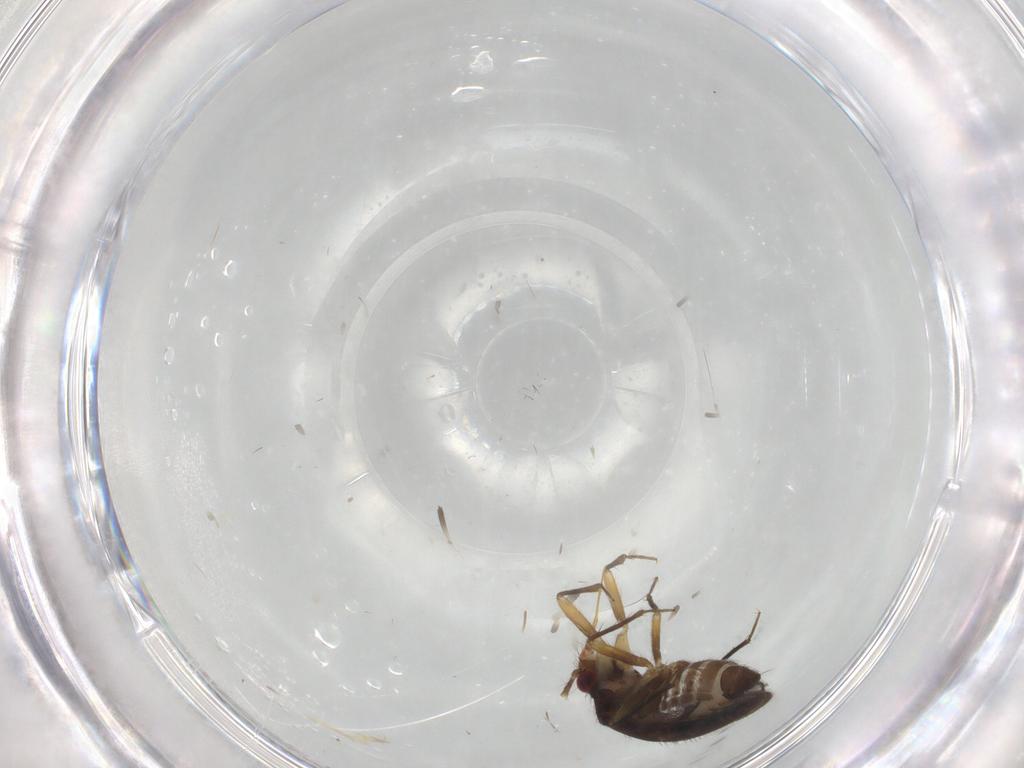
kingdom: Animalia
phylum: Arthropoda
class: Insecta
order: Hemiptera
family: Ceratocombidae
